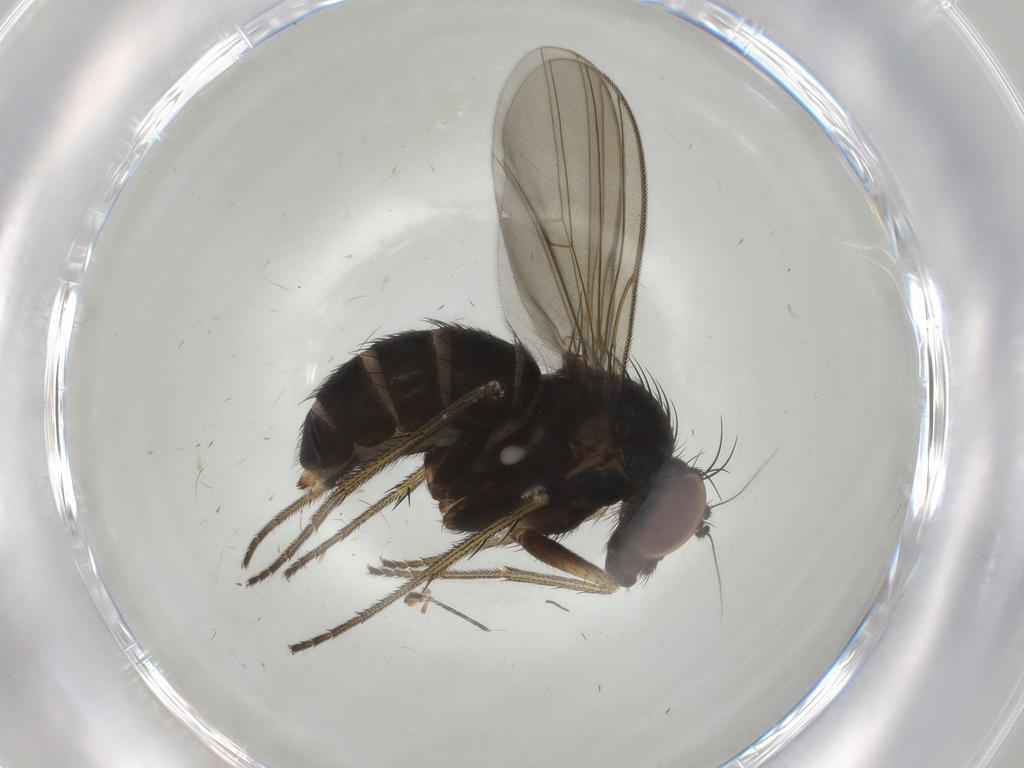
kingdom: Animalia
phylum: Arthropoda
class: Insecta
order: Diptera
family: Dolichopodidae
